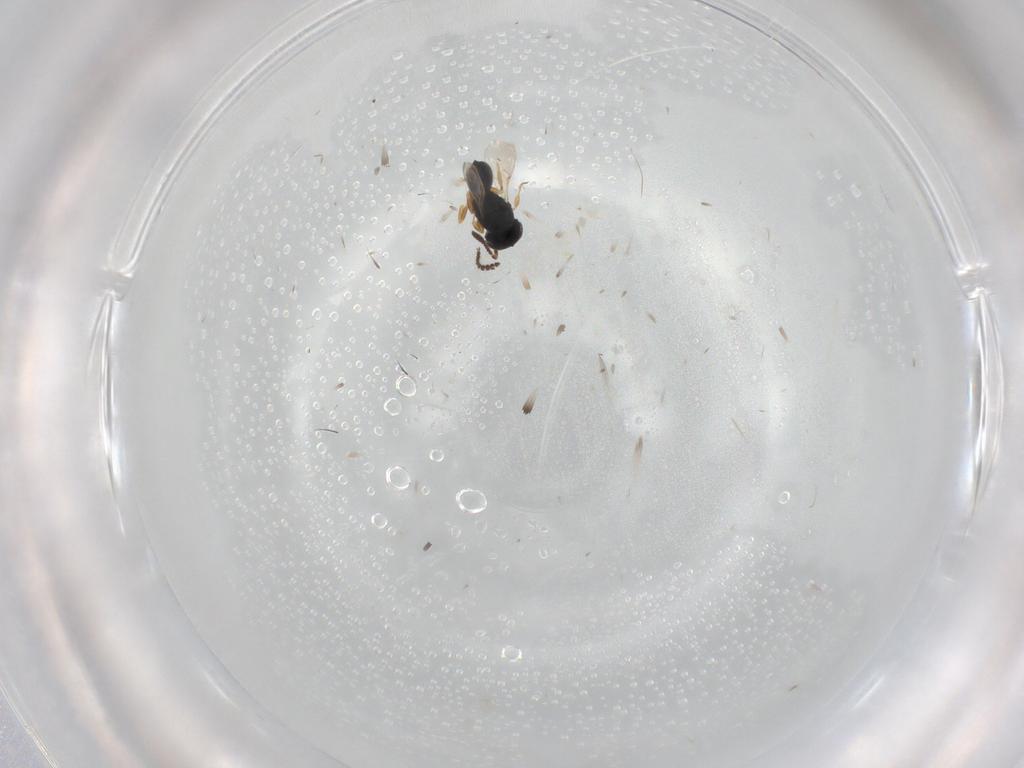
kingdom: Animalia
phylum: Arthropoda
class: Insecta
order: Hymenoptera
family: Scelionidae
